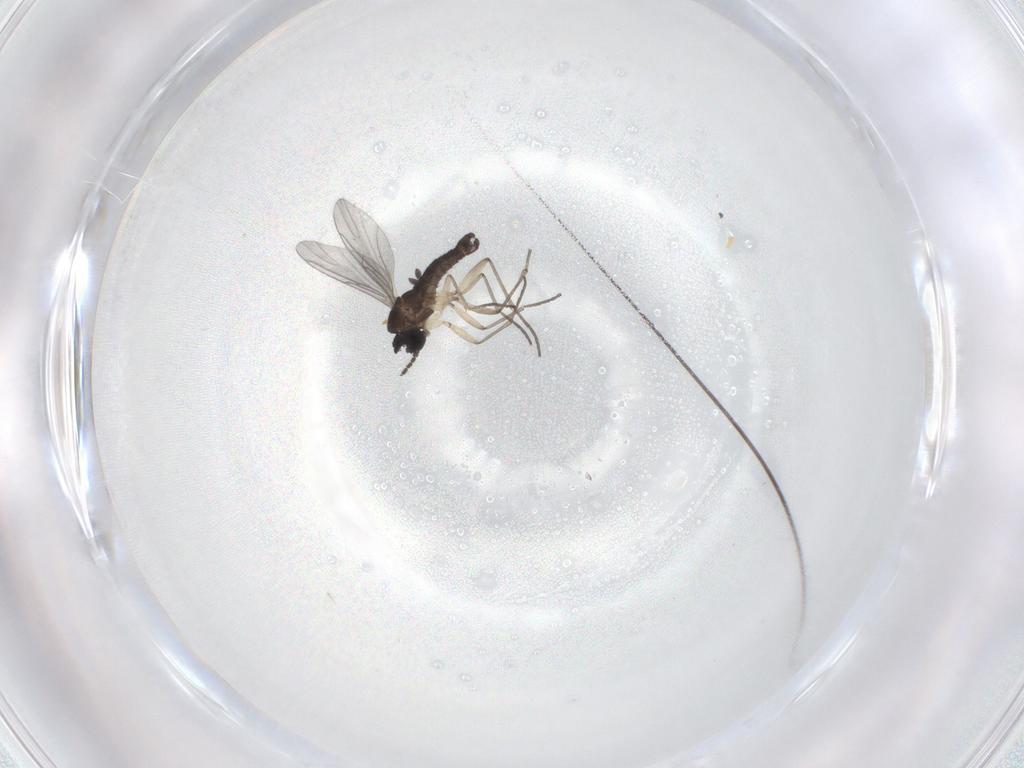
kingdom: Animalia
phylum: Arthropoda
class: Insecta
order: Diptera
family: Sciaridae
